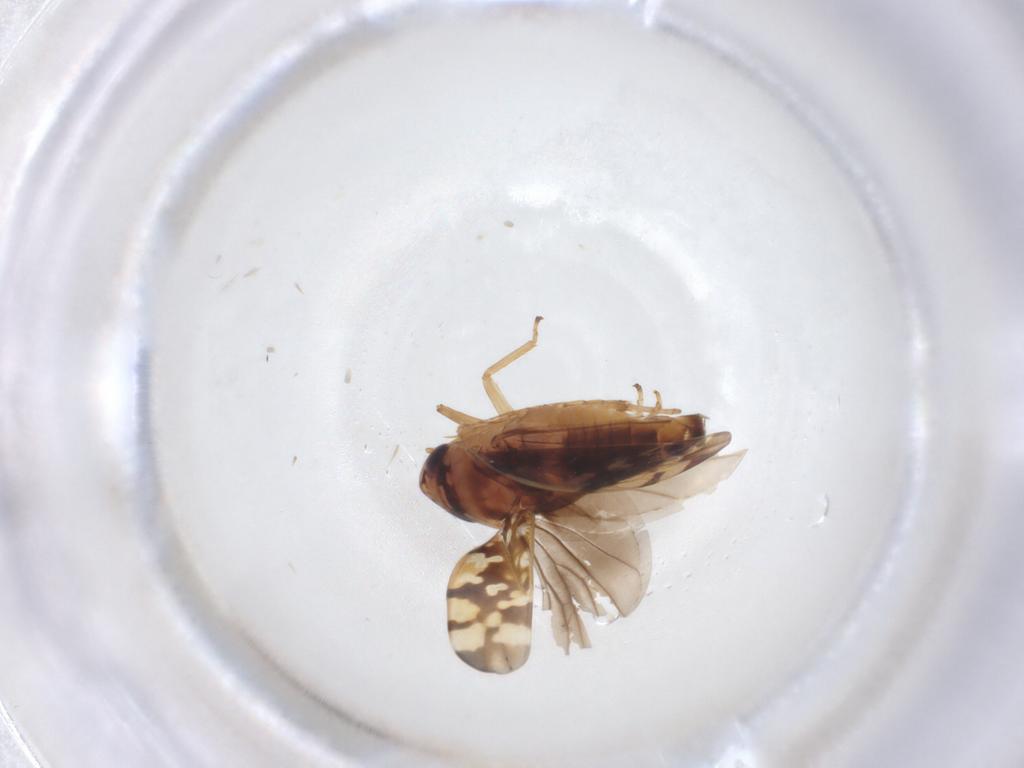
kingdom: Animalia
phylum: Arthropoda
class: Insecta
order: Hemiptera
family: Cicadellidae
